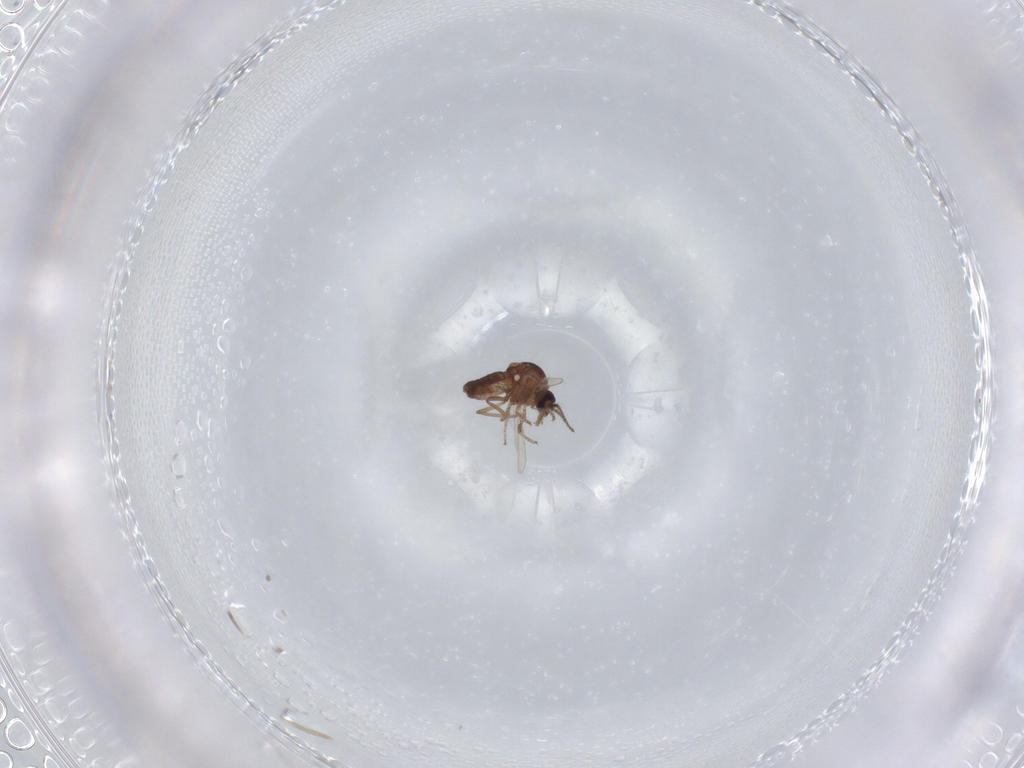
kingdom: Animalia
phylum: Arthropoda
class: Insecta
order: Diptera
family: Ceratopogonidae
